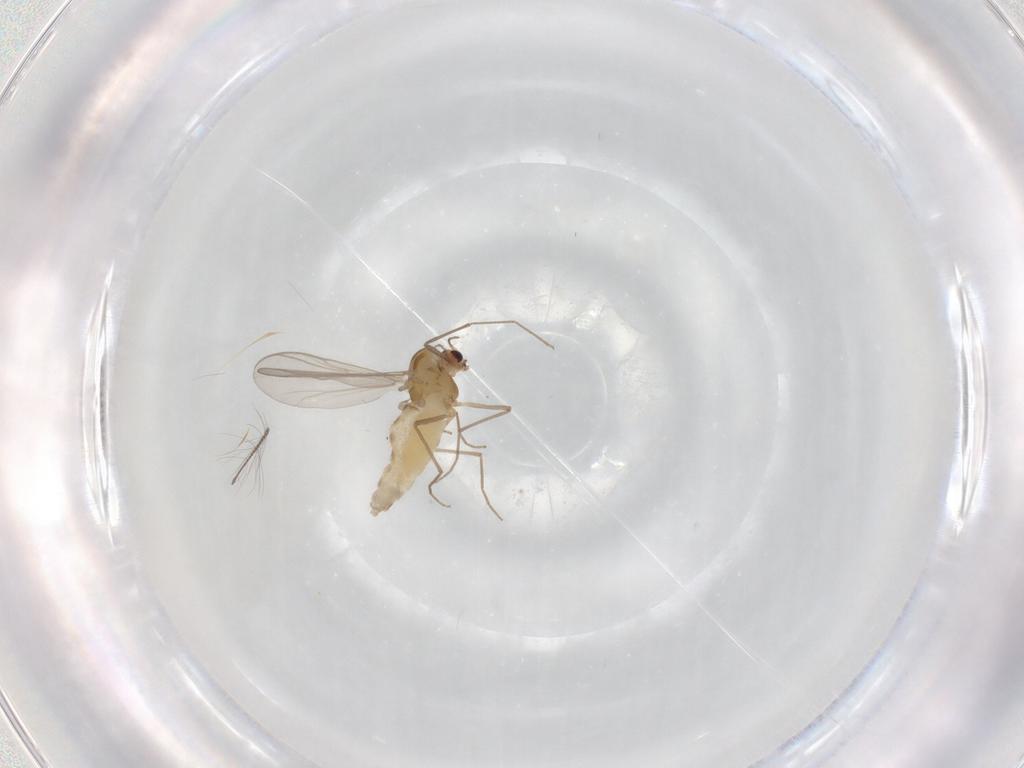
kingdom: Animalia
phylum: Arthropoda
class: Insecta
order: Diptera
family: Chironomidae
